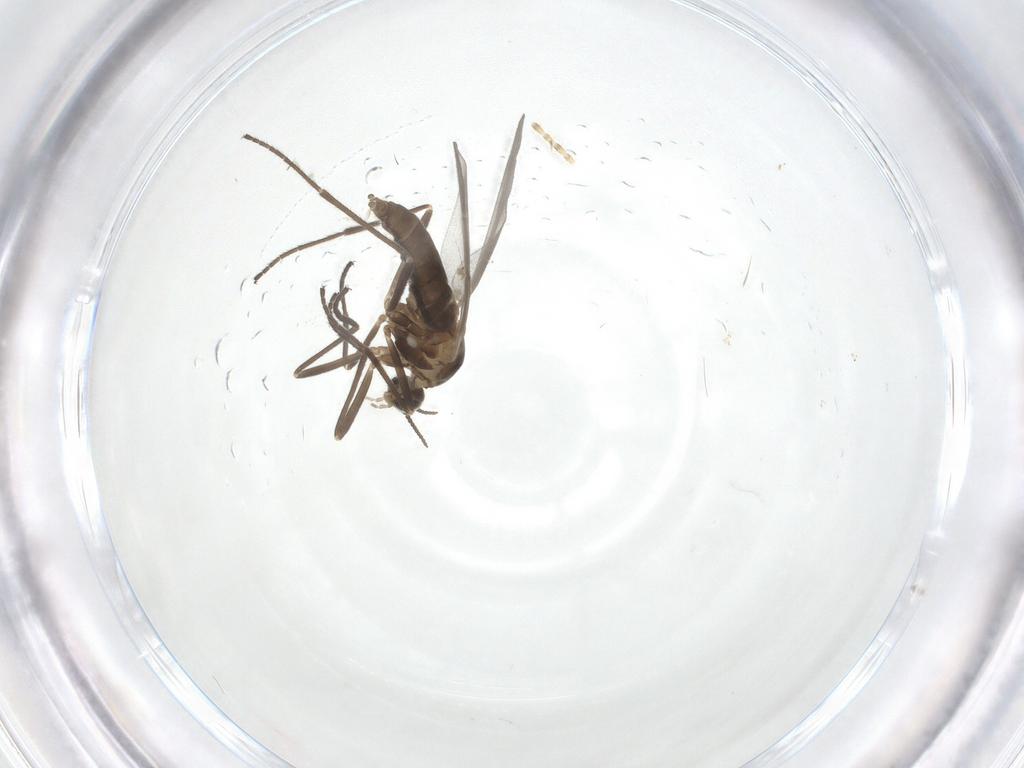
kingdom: Animalia
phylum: Arthropoda
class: Insecta
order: Diptera
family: Cecidomyiidae
